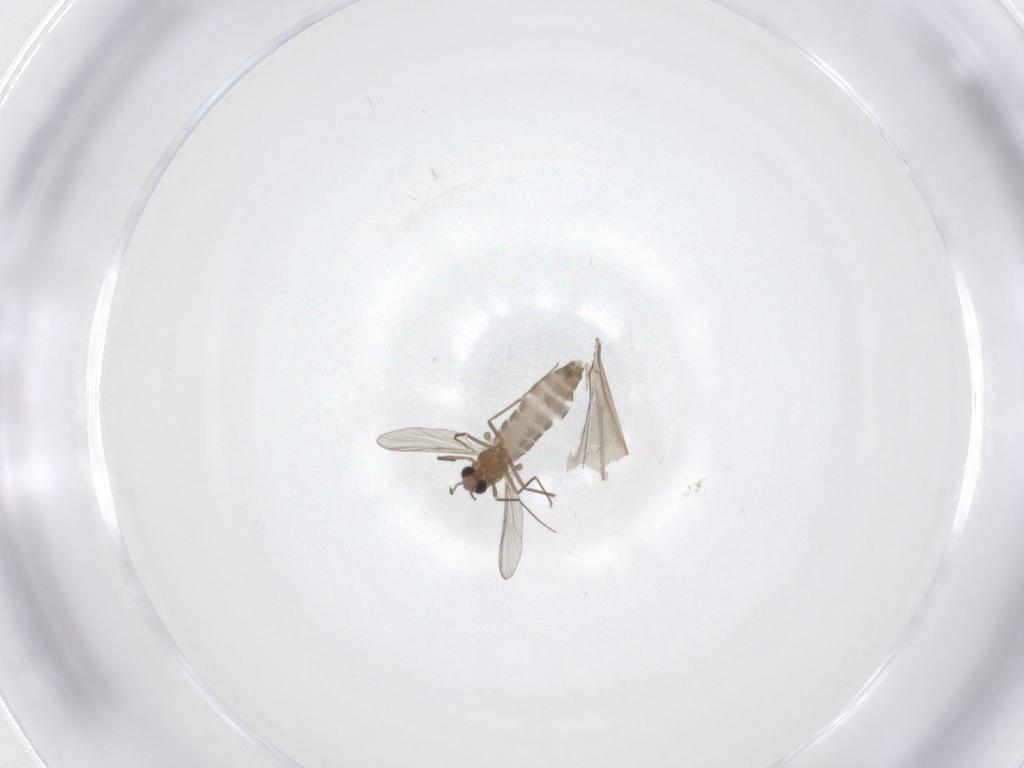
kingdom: Animalia
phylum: Arthropoda
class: Insecta
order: Diptera
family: Chironomidae
